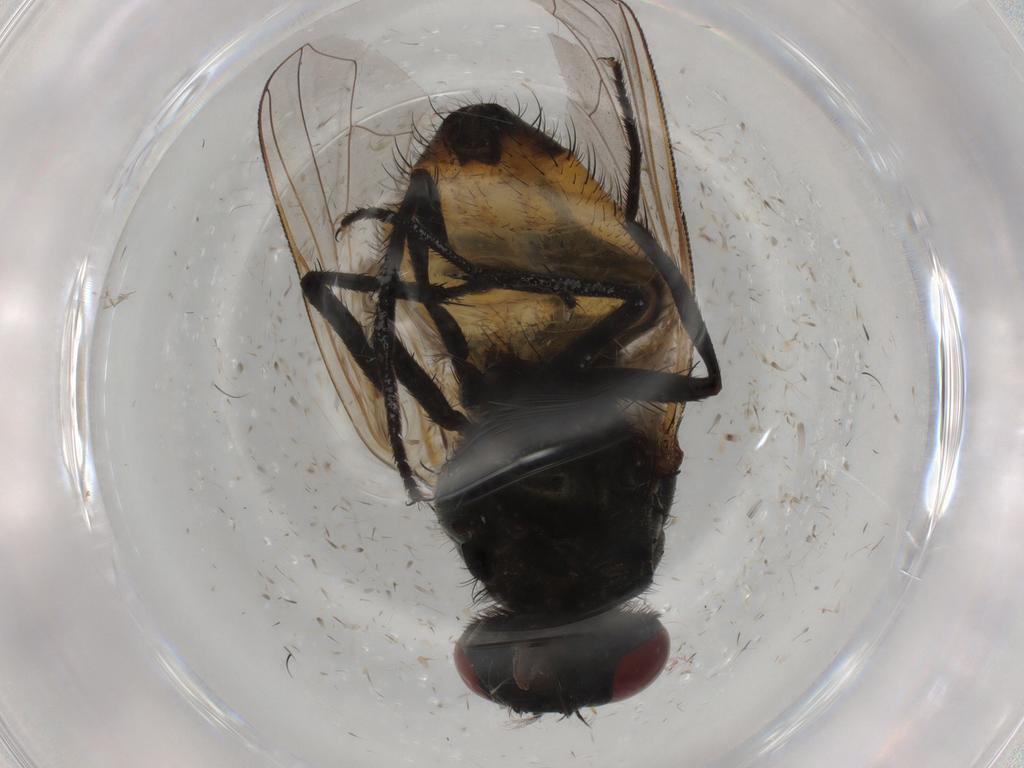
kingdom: Animalia
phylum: Arthropoda
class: Insecta
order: Diptera
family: Muscidae
